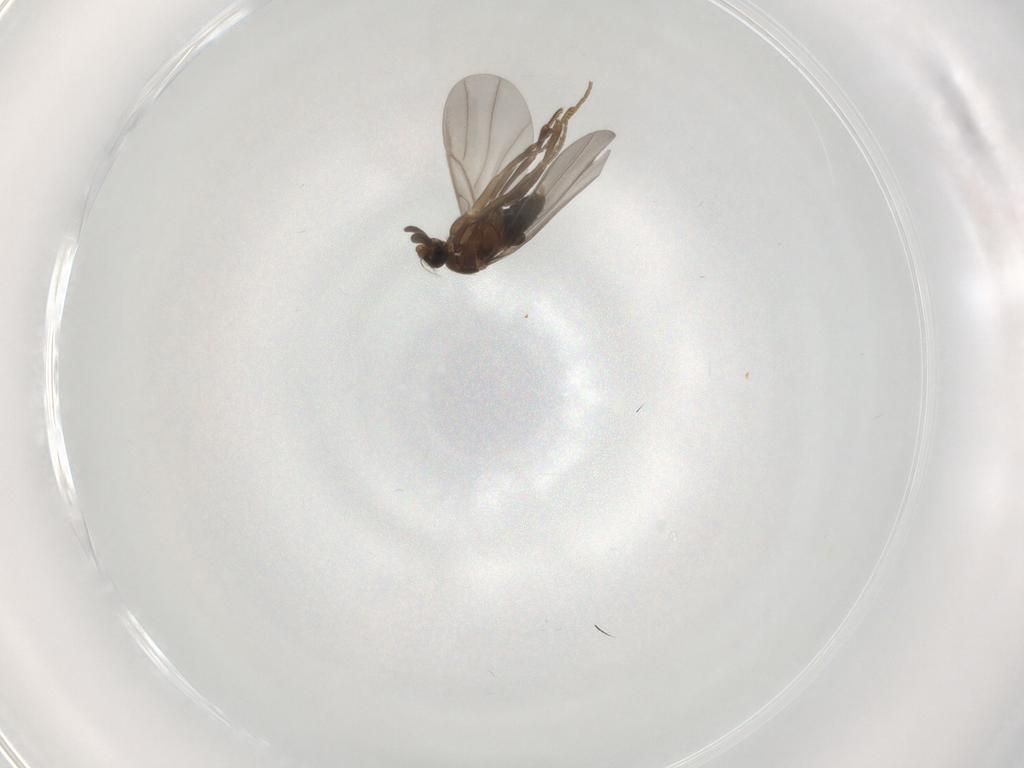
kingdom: Animalia
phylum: Arthropoda
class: Insecta
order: Diptera
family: Phoridae
